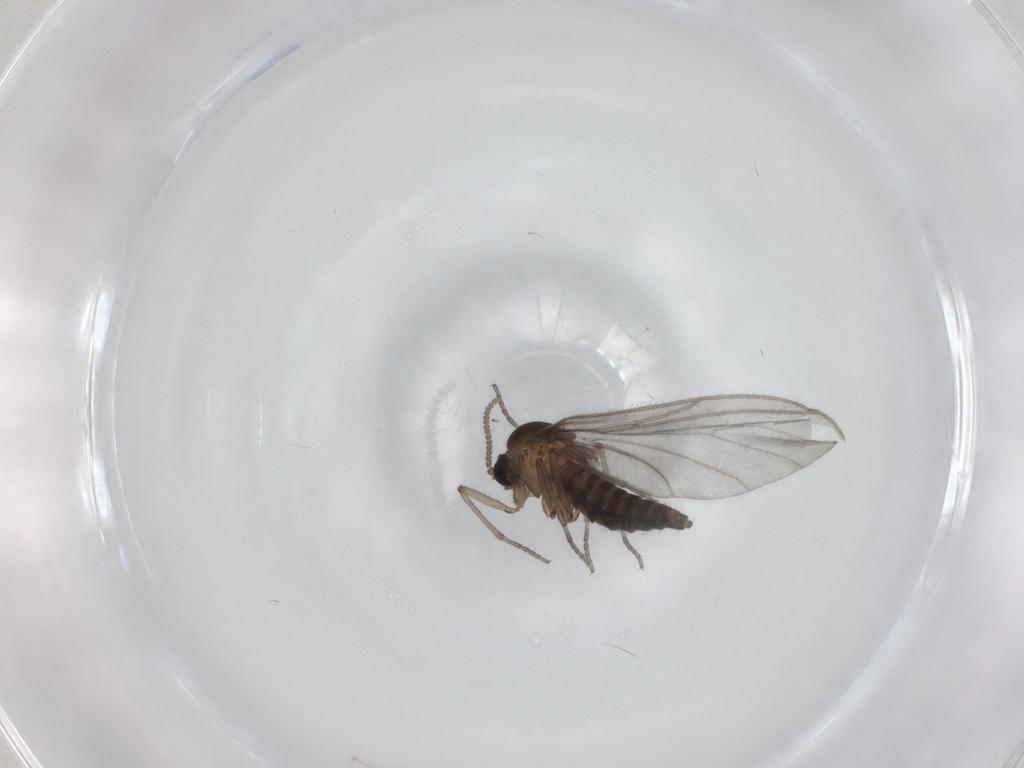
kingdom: Animalia
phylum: Arthropoda
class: Insecta
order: Diptera
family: Sciaridae
